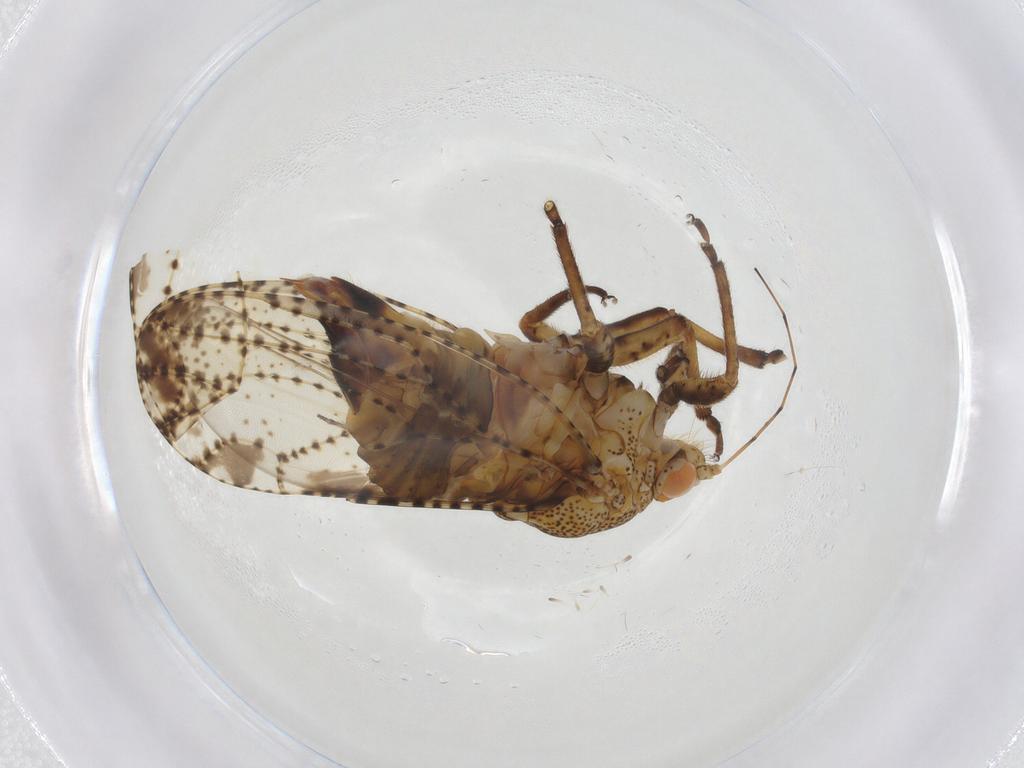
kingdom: Animalia
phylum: Arthropoda
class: Insecta
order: Hemiptera
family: Psyllidae
